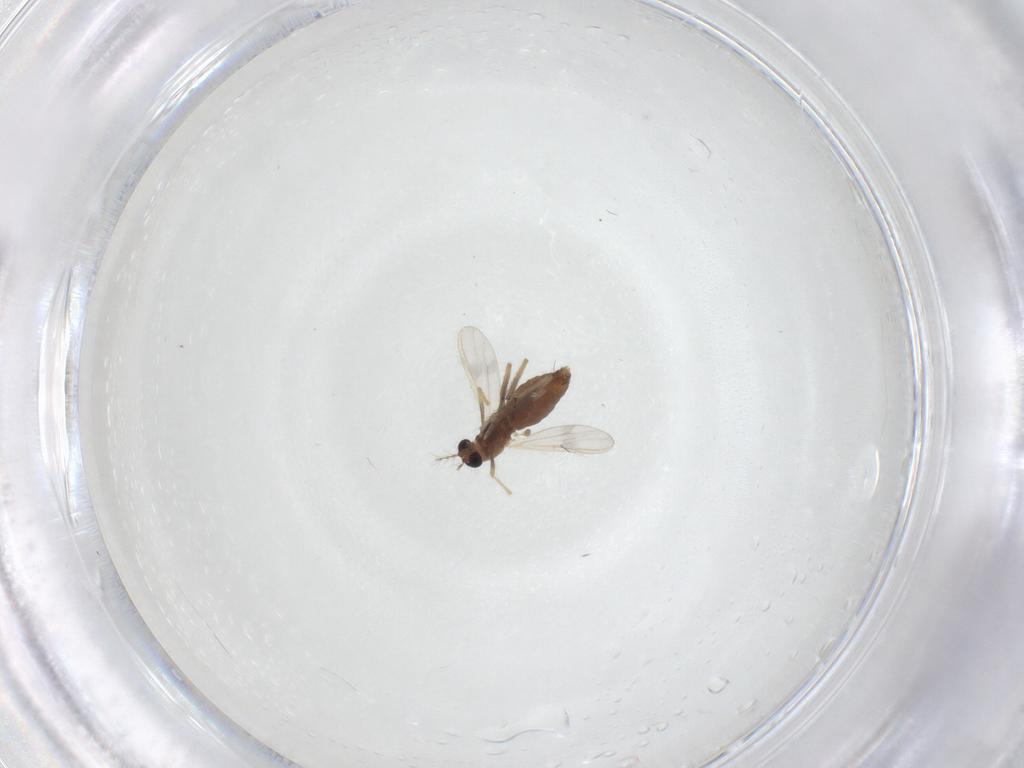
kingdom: Animalia
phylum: Arthropoda
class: Insecta
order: Diptera
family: Chironomidae
